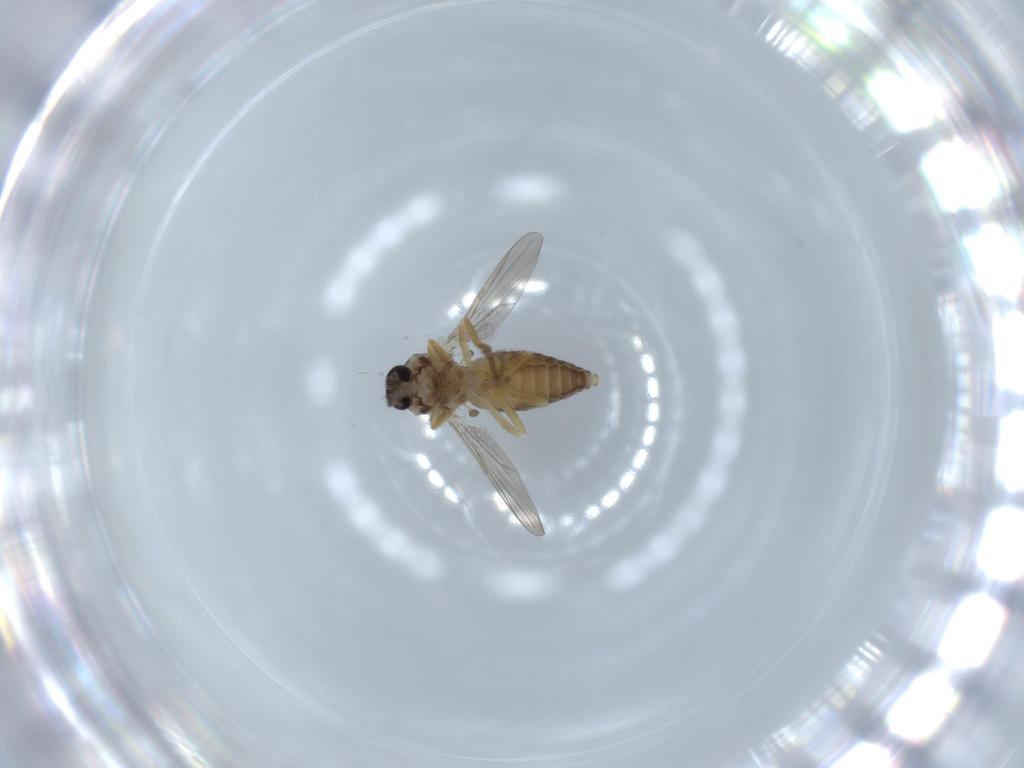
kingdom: Animalia
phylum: Arthropoda
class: Insecta
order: Diptera
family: Ceratopogonidae
